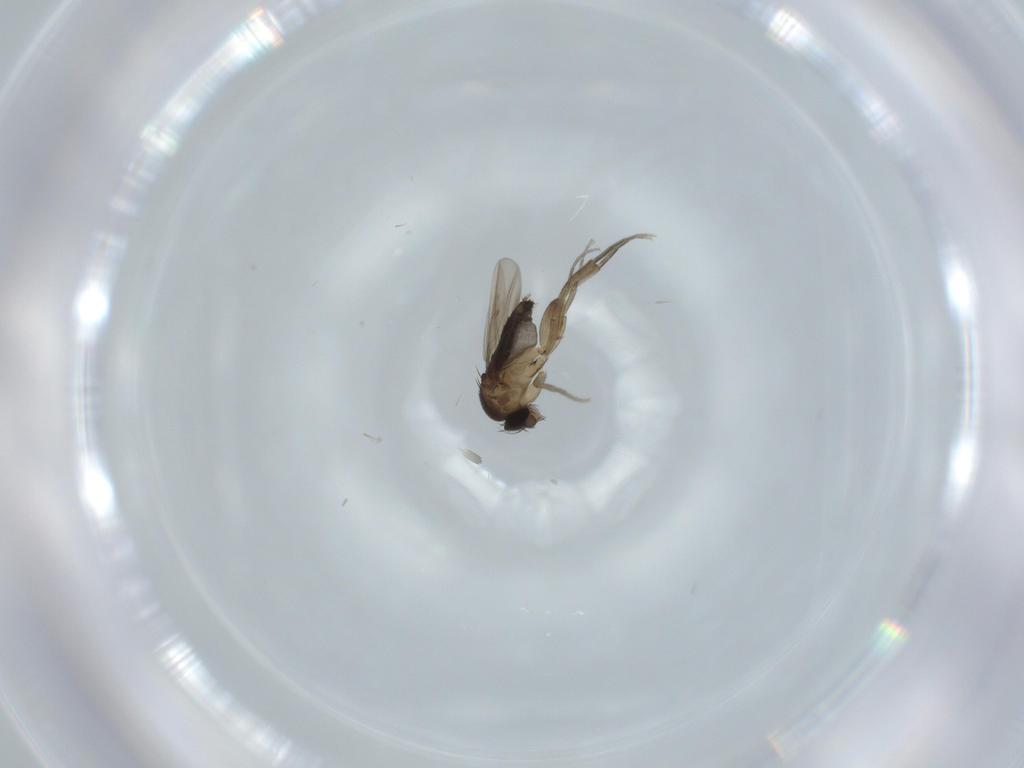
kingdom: Animalia
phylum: Arthropoda
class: Insecta
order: Diptera
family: Phoridae
